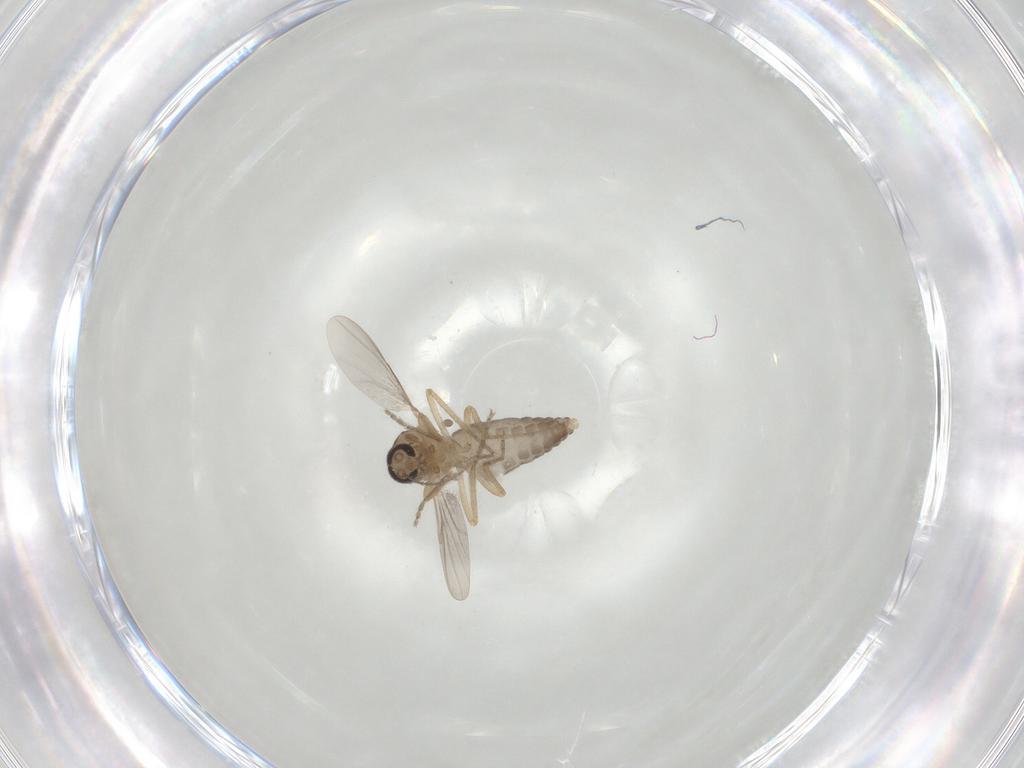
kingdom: Animalia
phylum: Arthropoda
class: Insecta
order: Diptera
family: Ceratopogonidae
